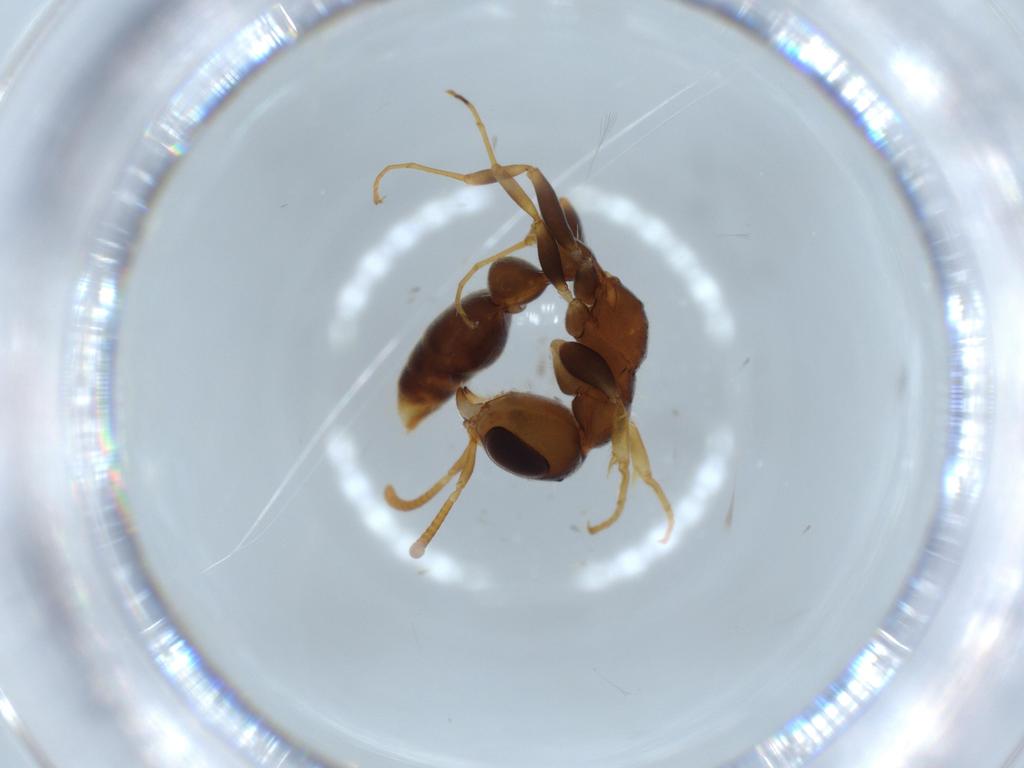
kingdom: Animalia
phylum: Arthropoda
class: Insecta
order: Hymenoptera
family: Formicidae
